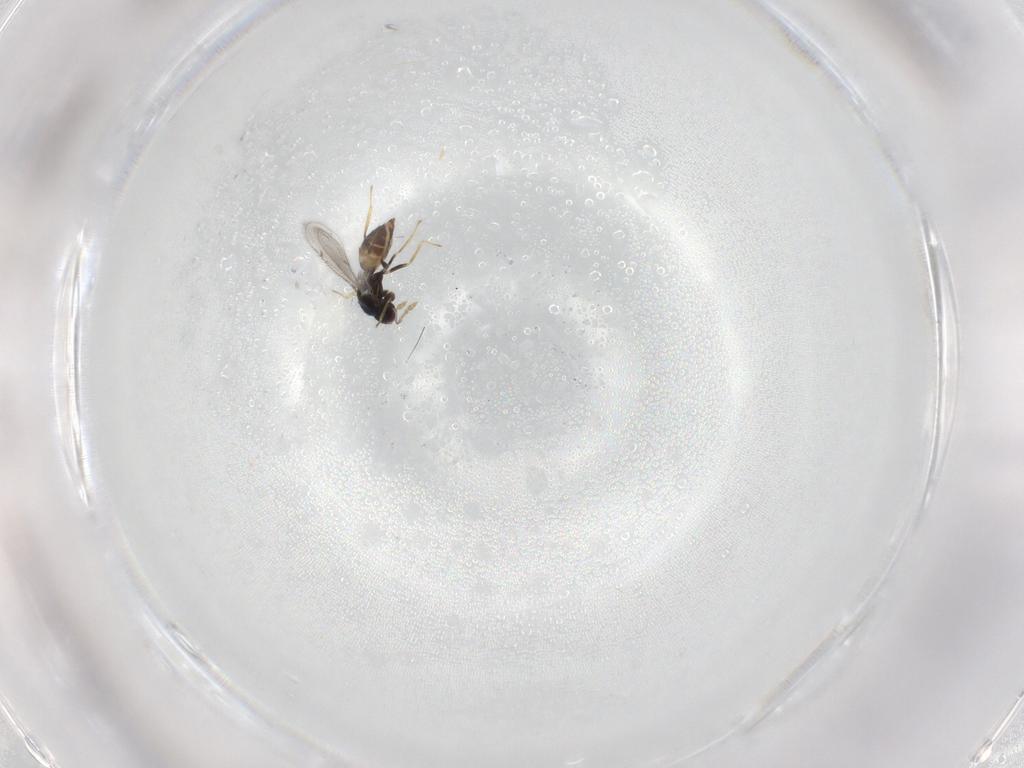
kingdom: Animalia
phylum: Arthropoda
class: Insecta
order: Hymenoptera
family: Eulophidae
